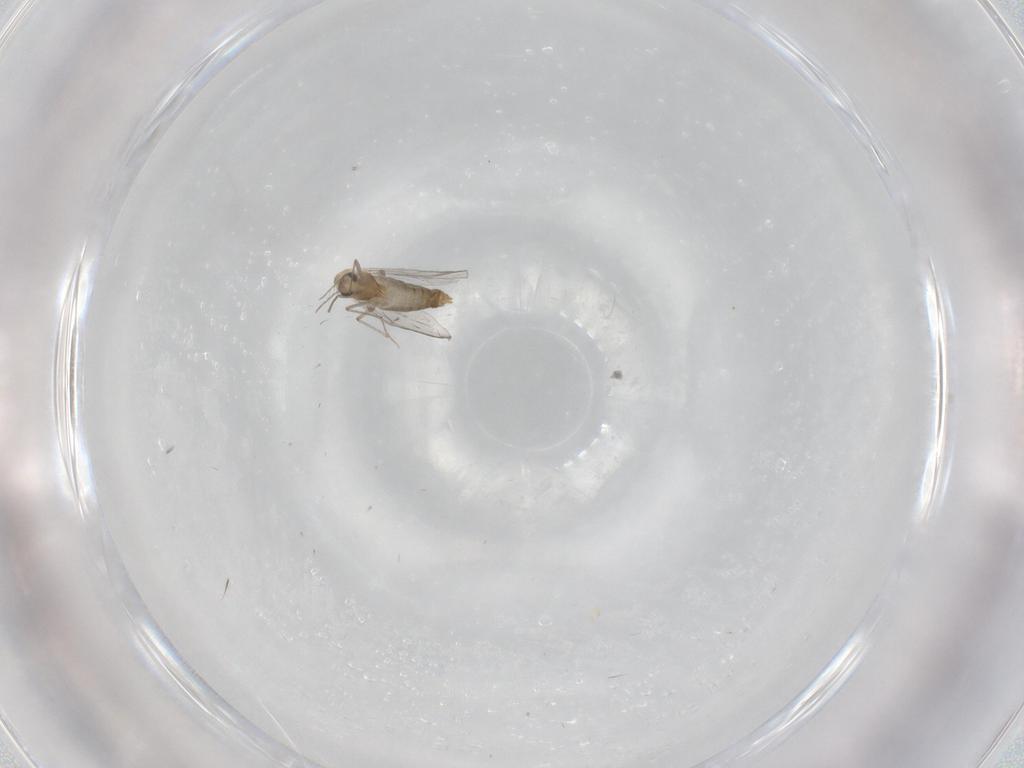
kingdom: Animalia
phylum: Arthropoda
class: Insecta
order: Diptera
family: Chironomidae
